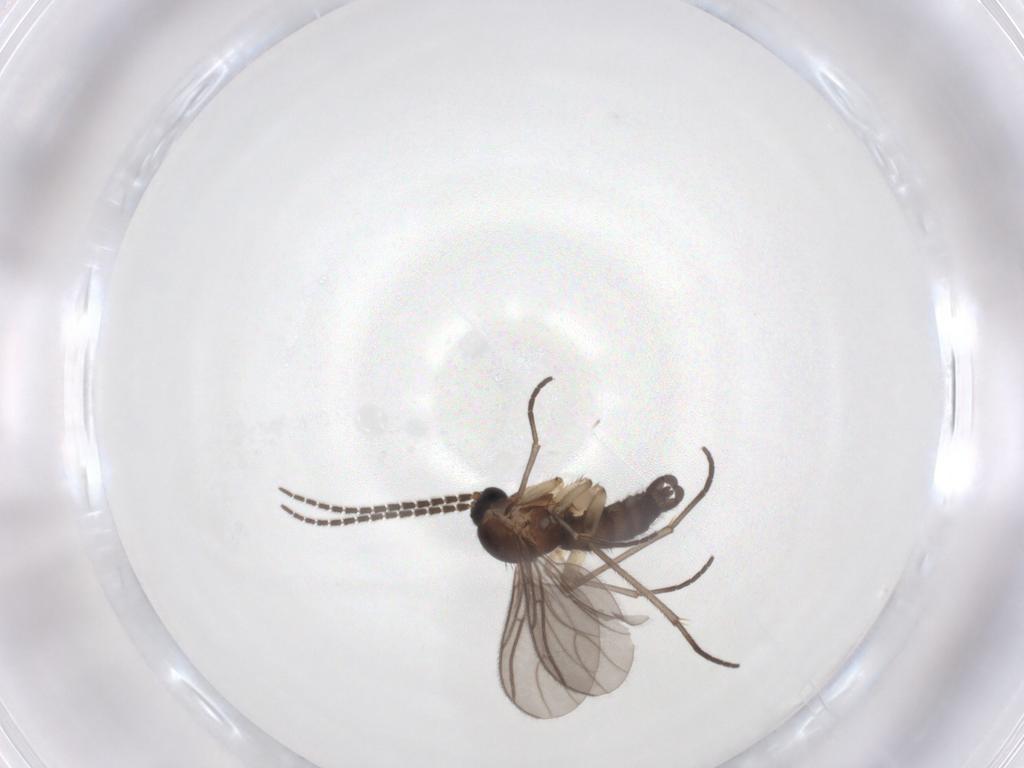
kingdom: Animalia
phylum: Arthropoda
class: Insecta
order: Diptera
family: Sciaridae
